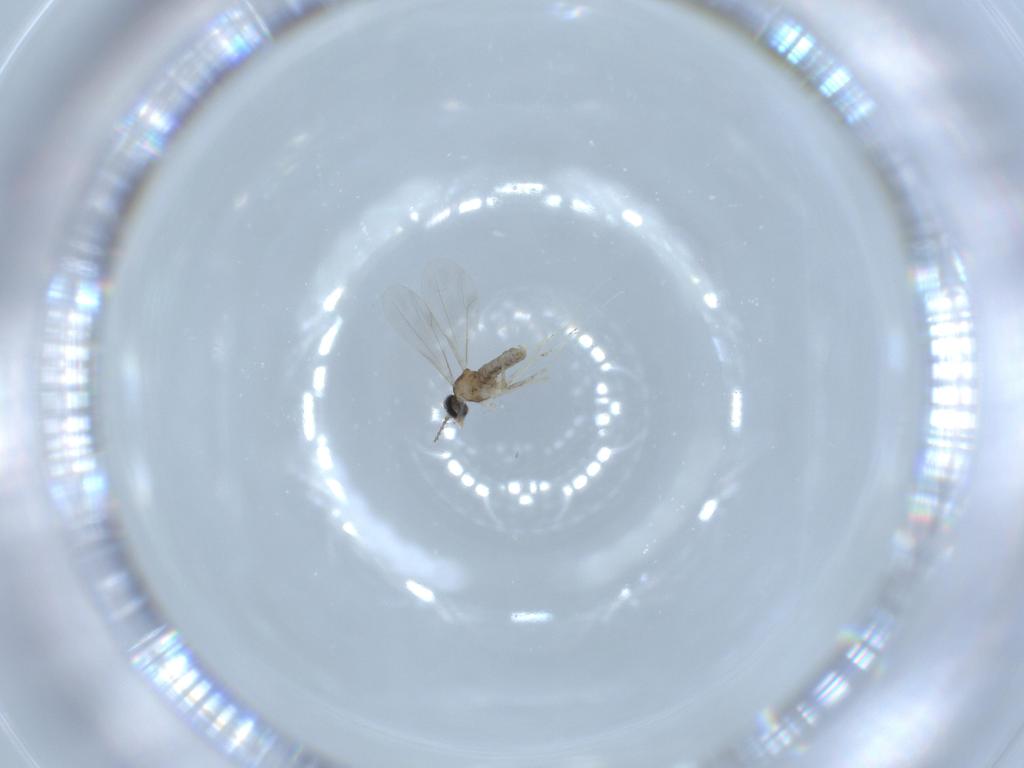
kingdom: Animalia
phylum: Arthropoda
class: Insecta
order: Diptera
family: Cecidomyiidae
